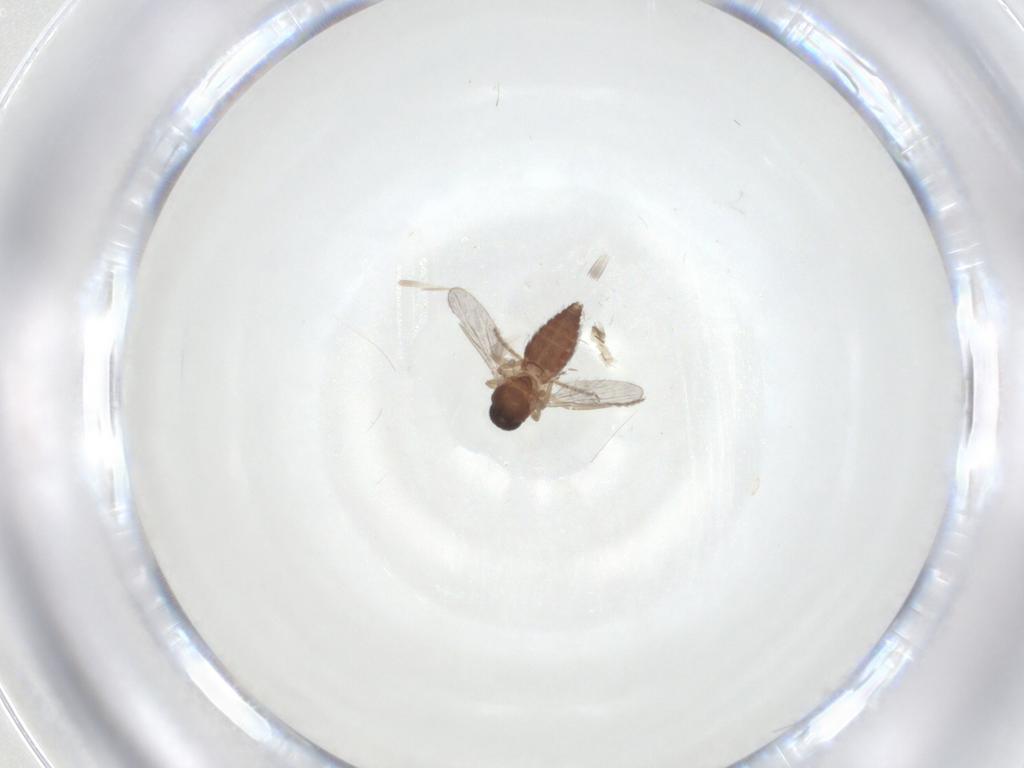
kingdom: Animalia
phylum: Arthropoda
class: Insecta
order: Diptera
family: Ceratopogonidae
